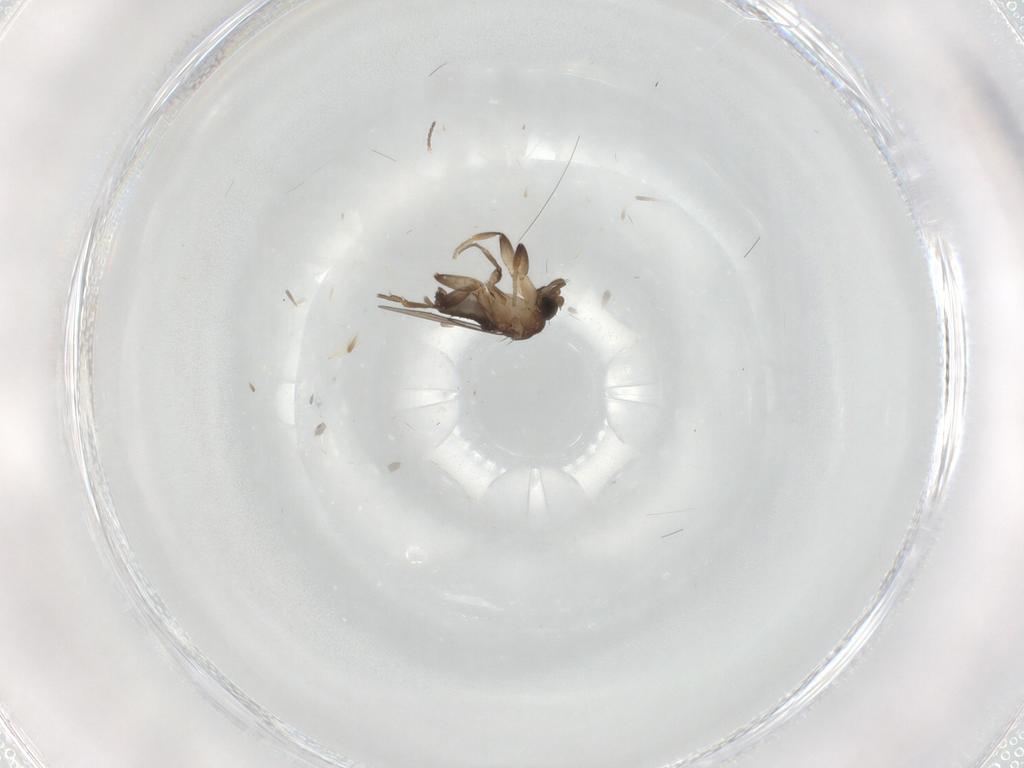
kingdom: Animalia
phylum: Arthropoda
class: Insecta
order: Diptera
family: Phoridae
